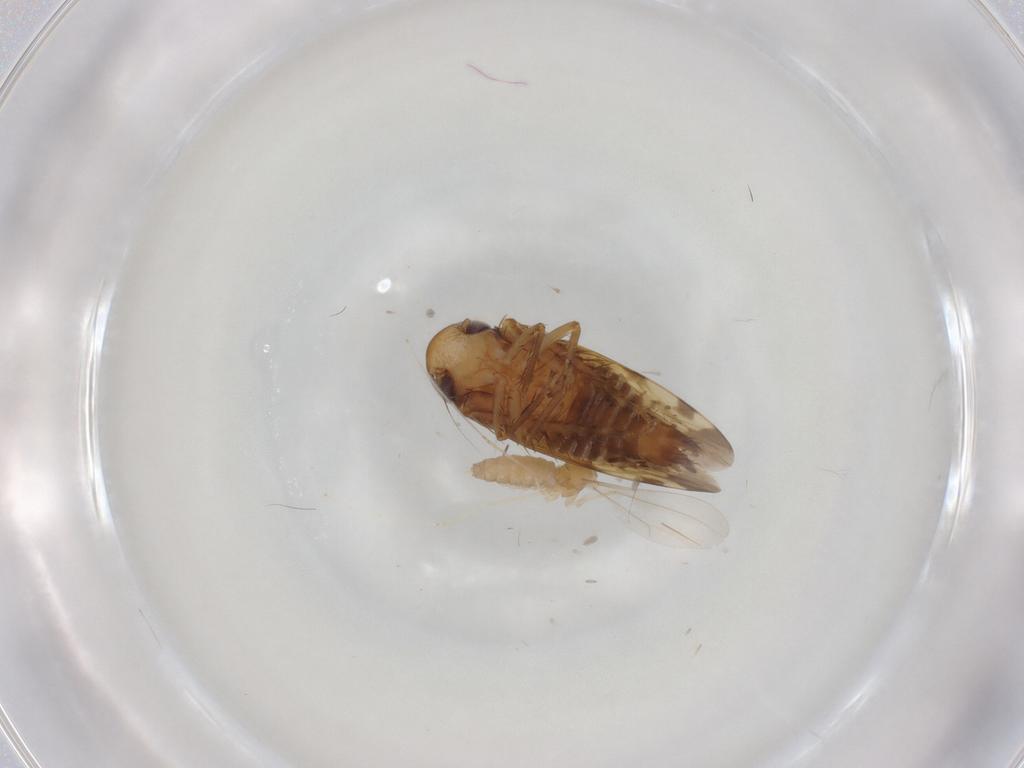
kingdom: Animalia
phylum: Arthropoda
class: Insecta
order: Hemiptera
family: Cicadellidae
